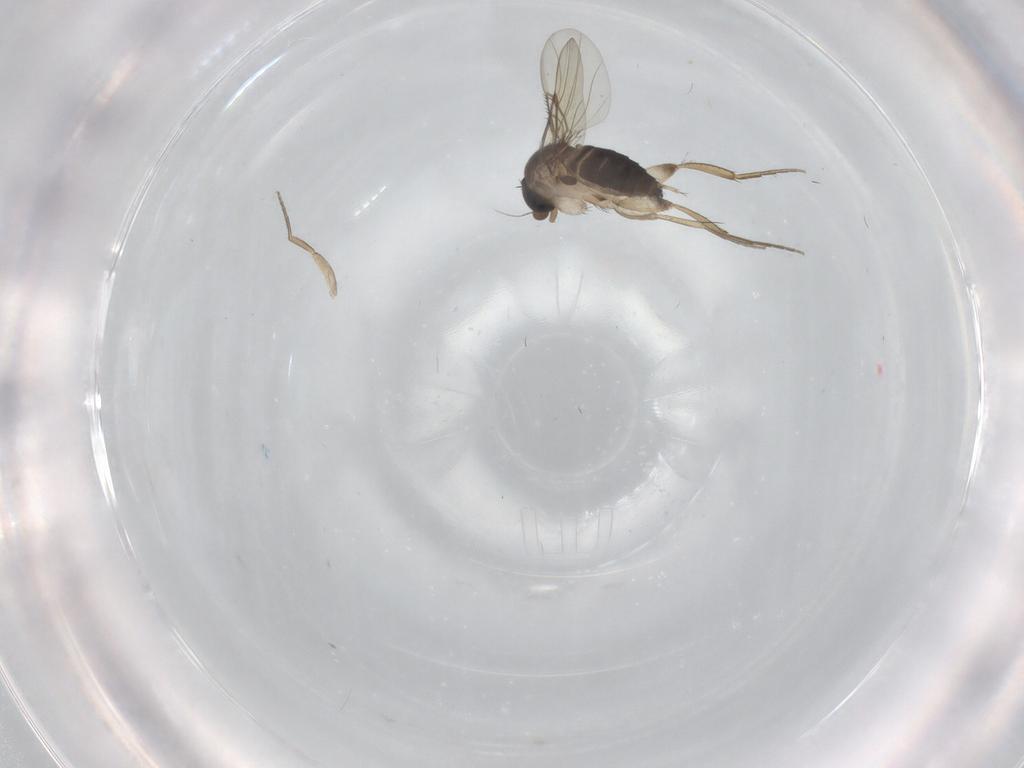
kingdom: Animalia
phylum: Arthropoda
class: Insecta
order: Diptera
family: Phoridae
